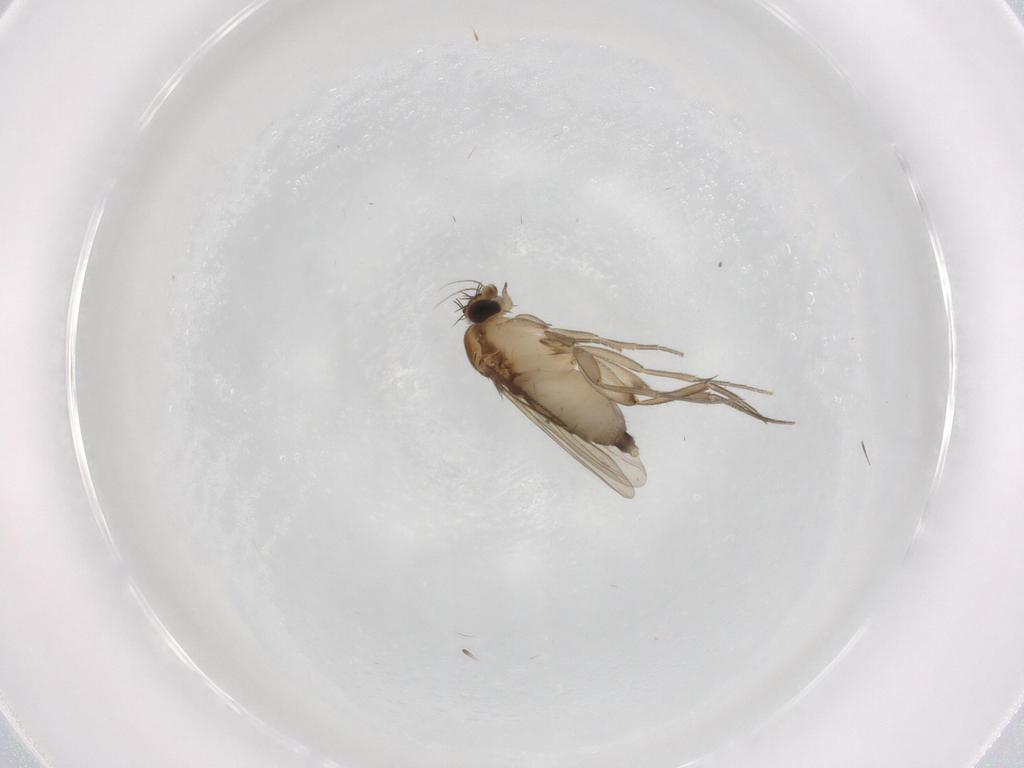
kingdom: Animalia
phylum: Arthropoda
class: Insecta
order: Diptera
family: Phoridae
